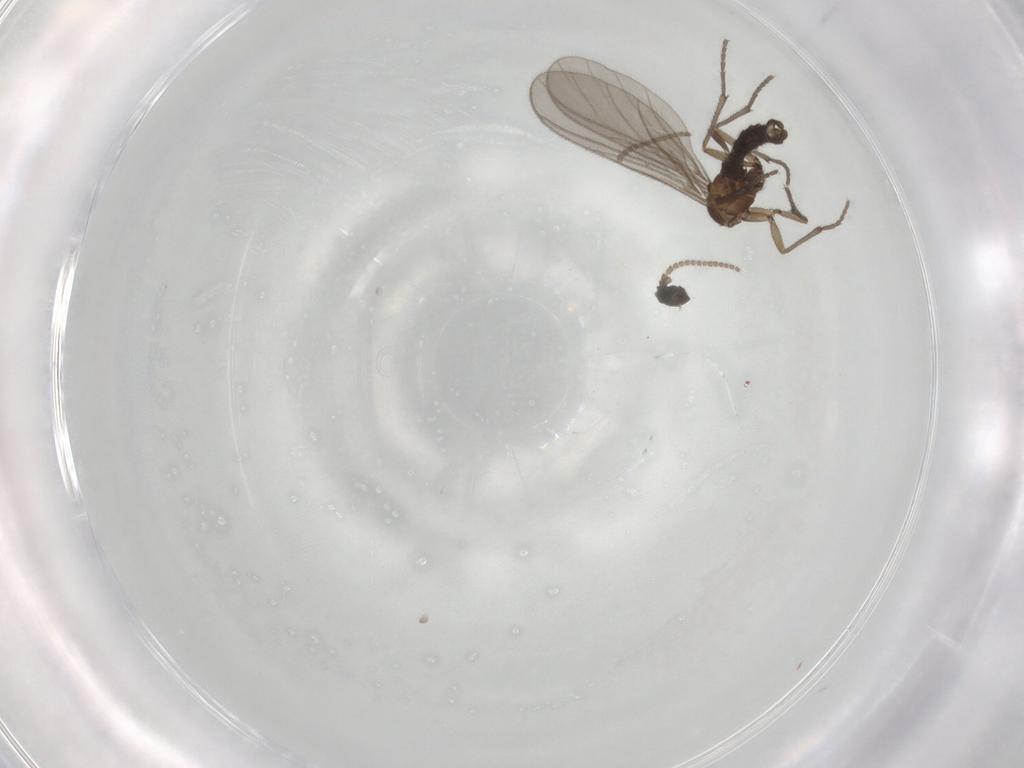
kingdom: Animalia
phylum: Arthropoda
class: Insecta
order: Diptera
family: Sciaridae
